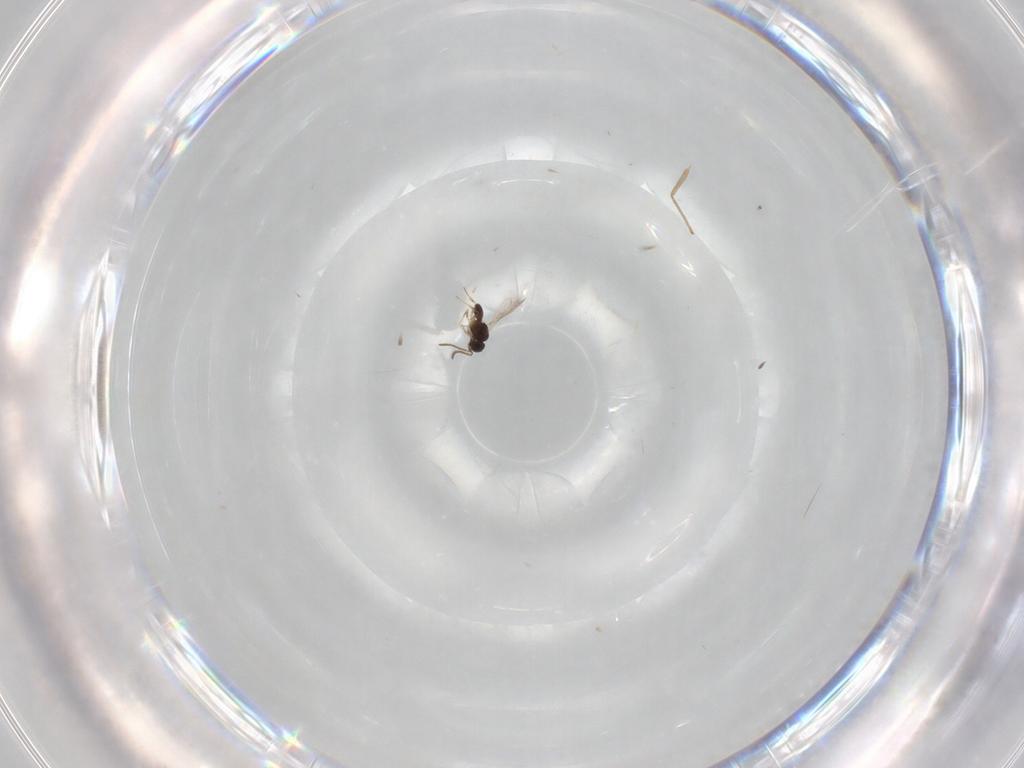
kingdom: Animalia
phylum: Arthropoda
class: Insecta
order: Hymenoptera
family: Scelionidae
